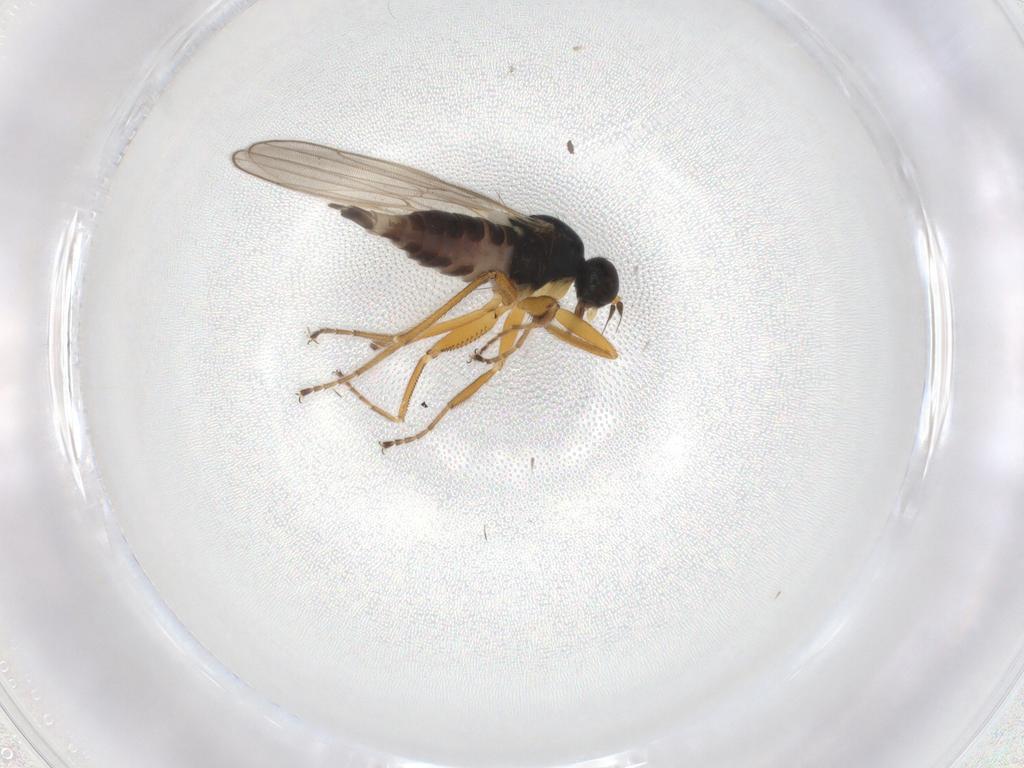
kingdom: Animalia
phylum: Arthropoda
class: Insecta
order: Diptera
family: Hybotidae
